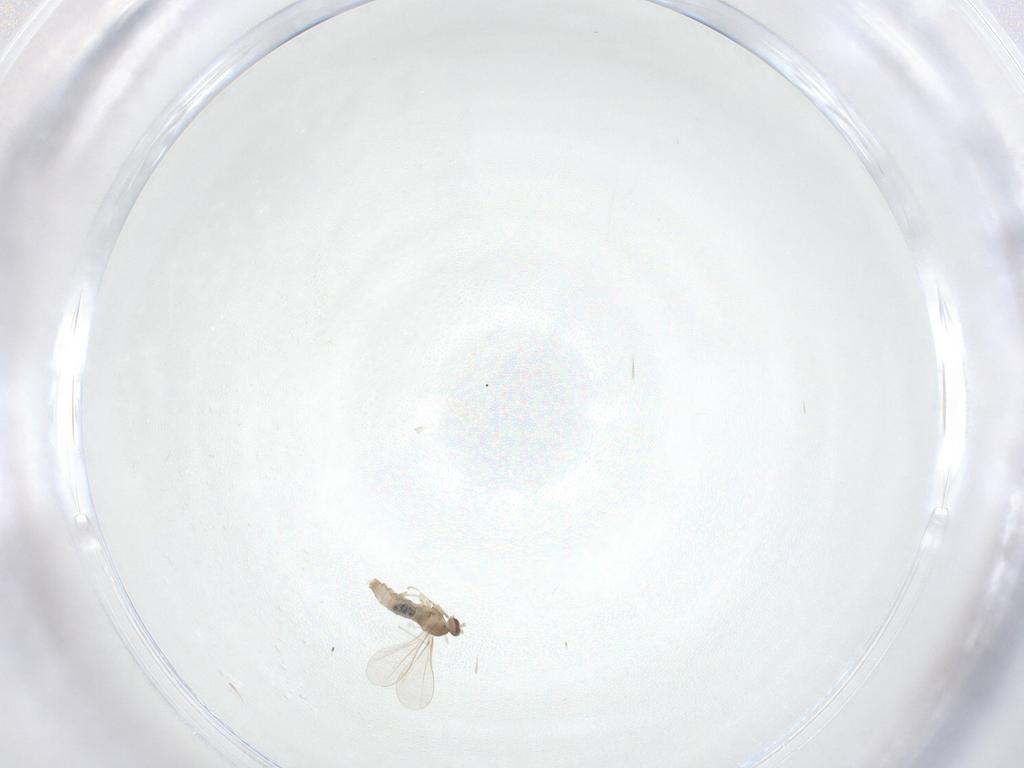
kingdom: Animalia
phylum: Arthropoda
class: Insecta
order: Diptera
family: Cecidomyiidae
